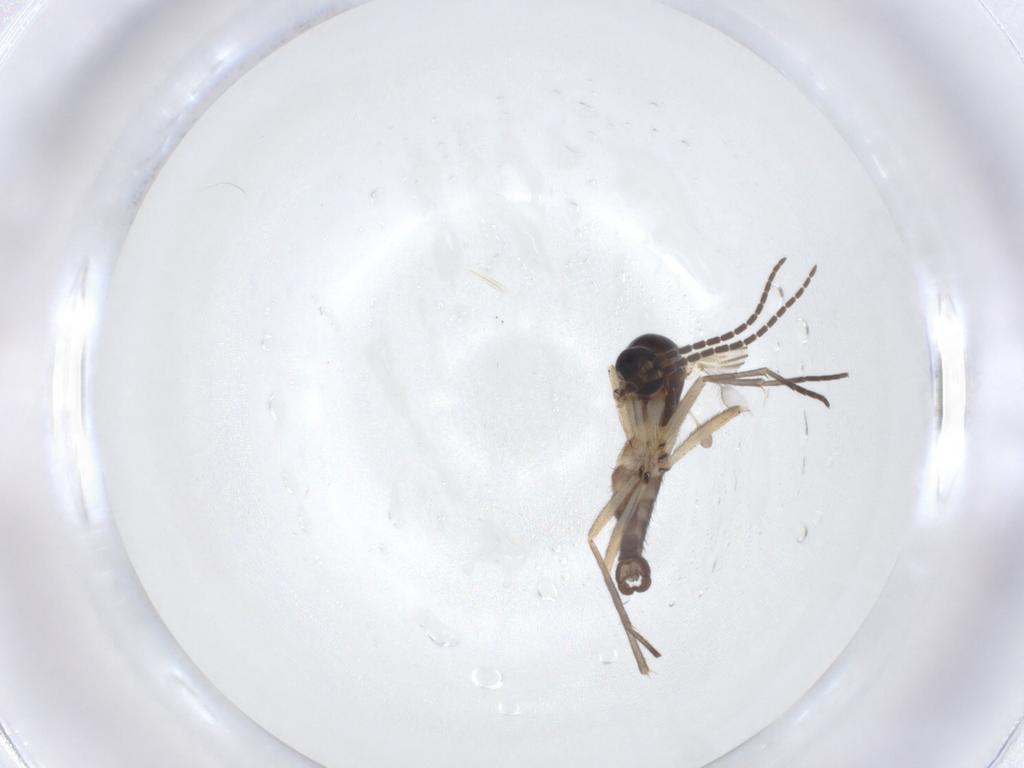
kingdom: Animalia
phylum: Arthropoda
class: Insecta
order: Diptera
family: Sciaridae
